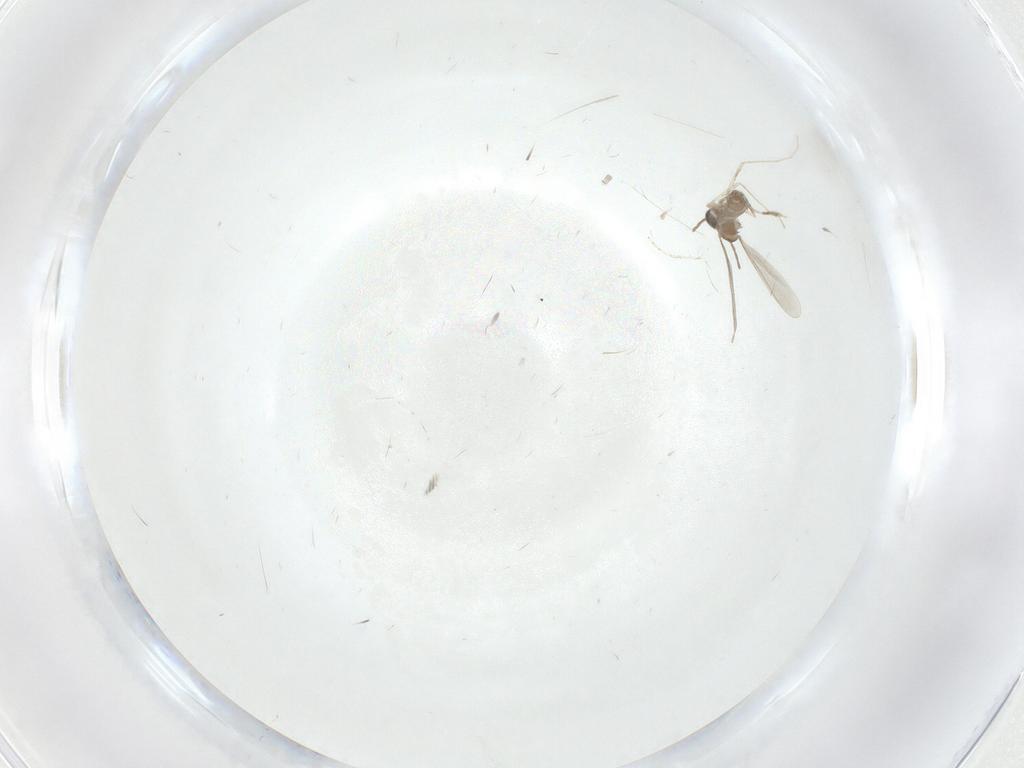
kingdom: Animalia
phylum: Arthropoda
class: Insecta
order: Diptera
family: Cecidomyiidae
